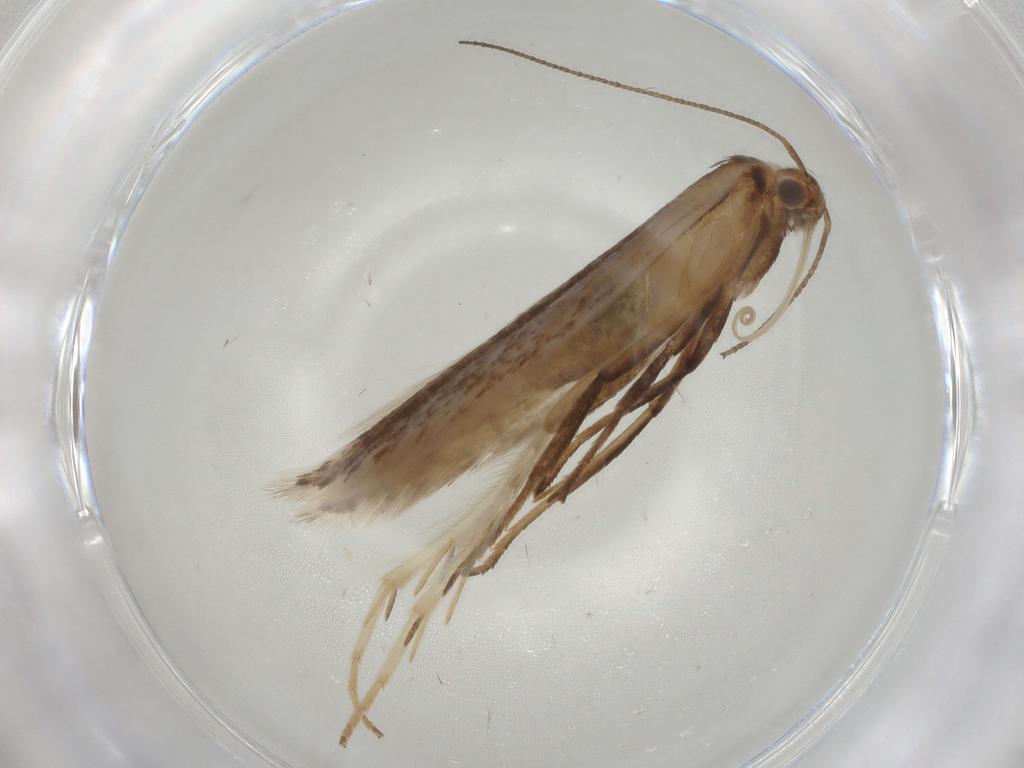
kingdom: Animalia
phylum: Arthropoda
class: Insecta
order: Lepidoptera
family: Gelechiidae
